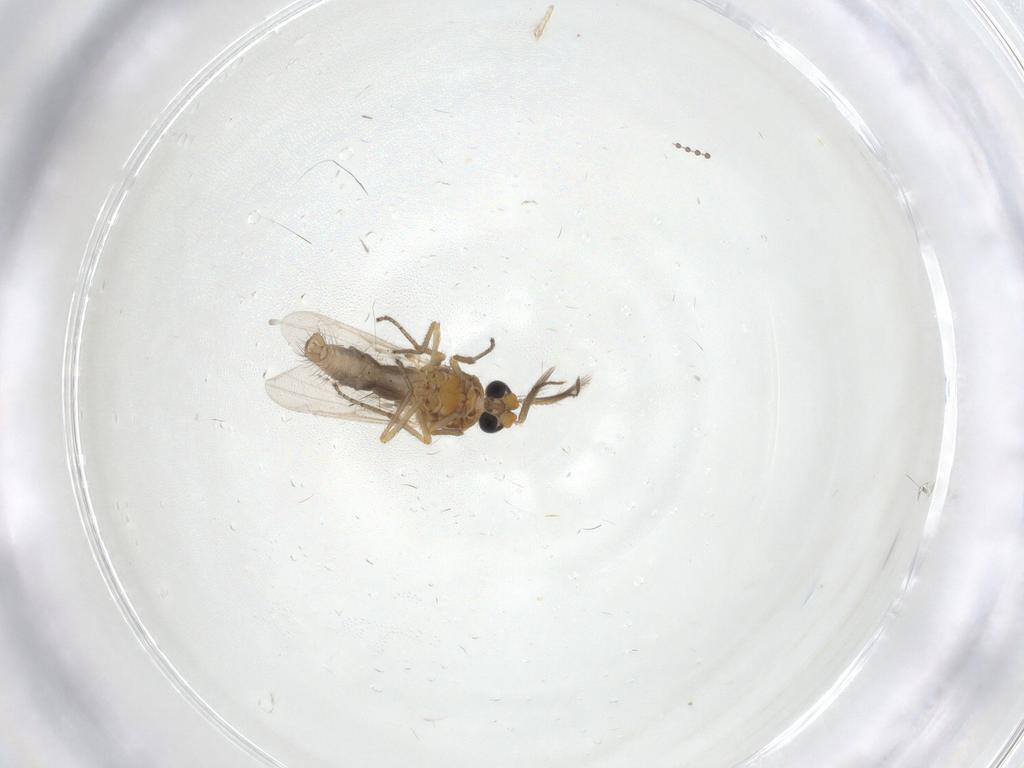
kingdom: Animalia
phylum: Arthropoda
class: Insecta
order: Diptera
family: Ceratopogonidae
